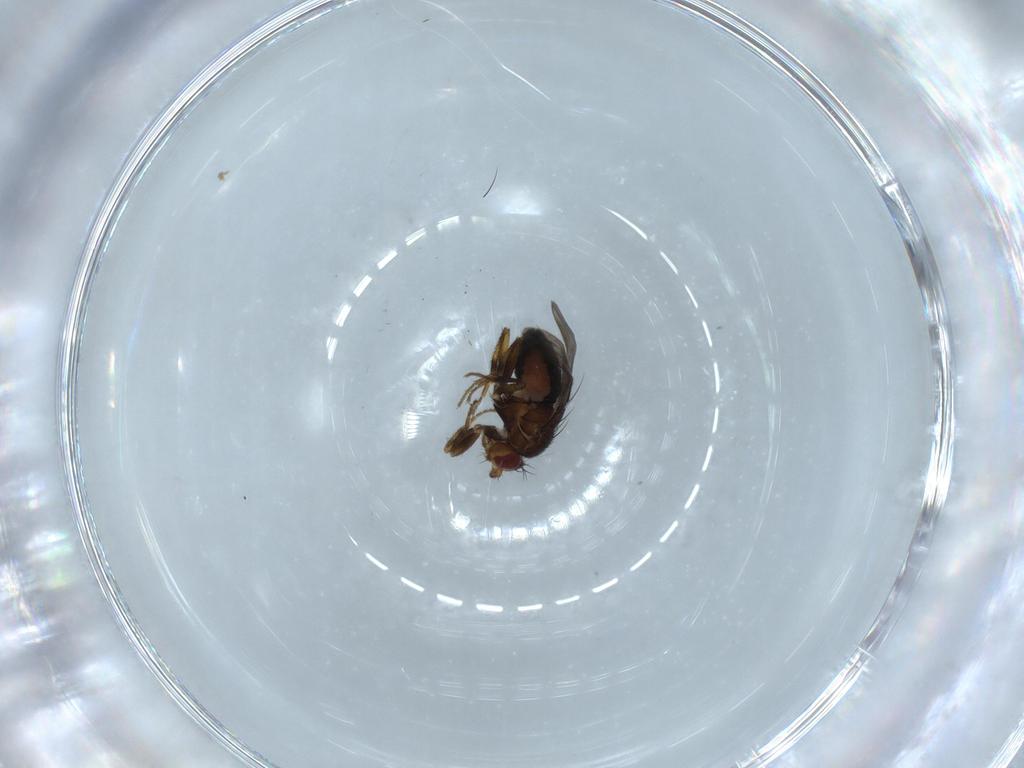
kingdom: Animalia
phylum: Arthropoda
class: Insecta
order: Diptera
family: Sphaeroceridae
